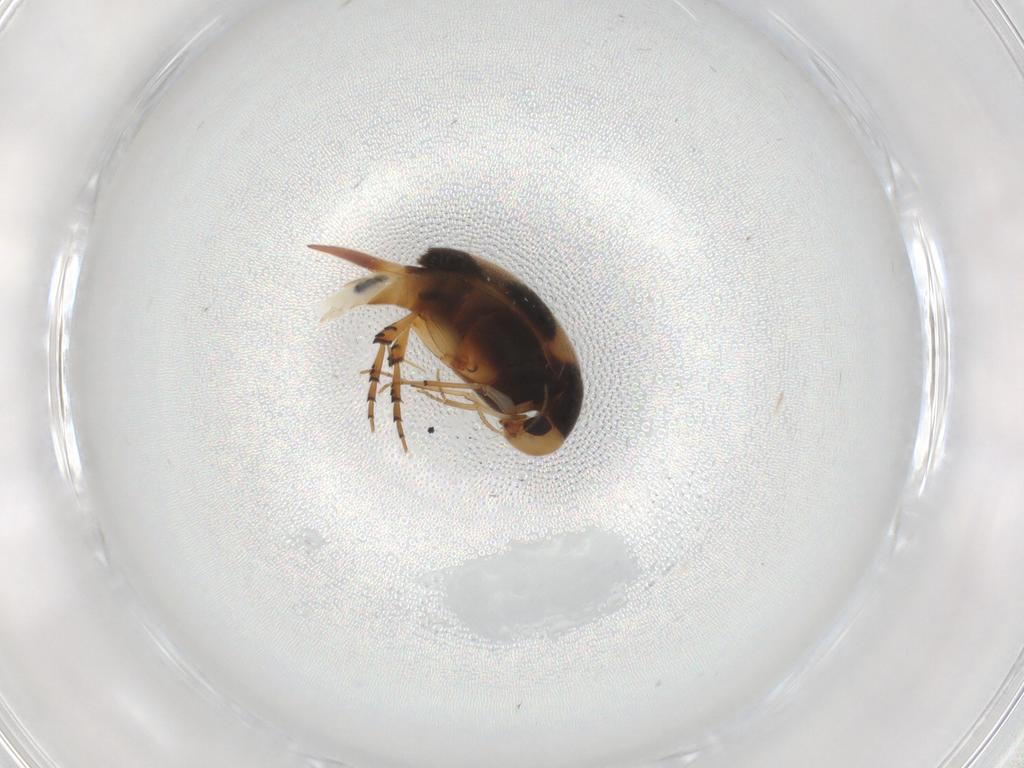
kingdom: Animalia
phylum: Arthropoda
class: Insecta
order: Coleoptera
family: Mordellidae
